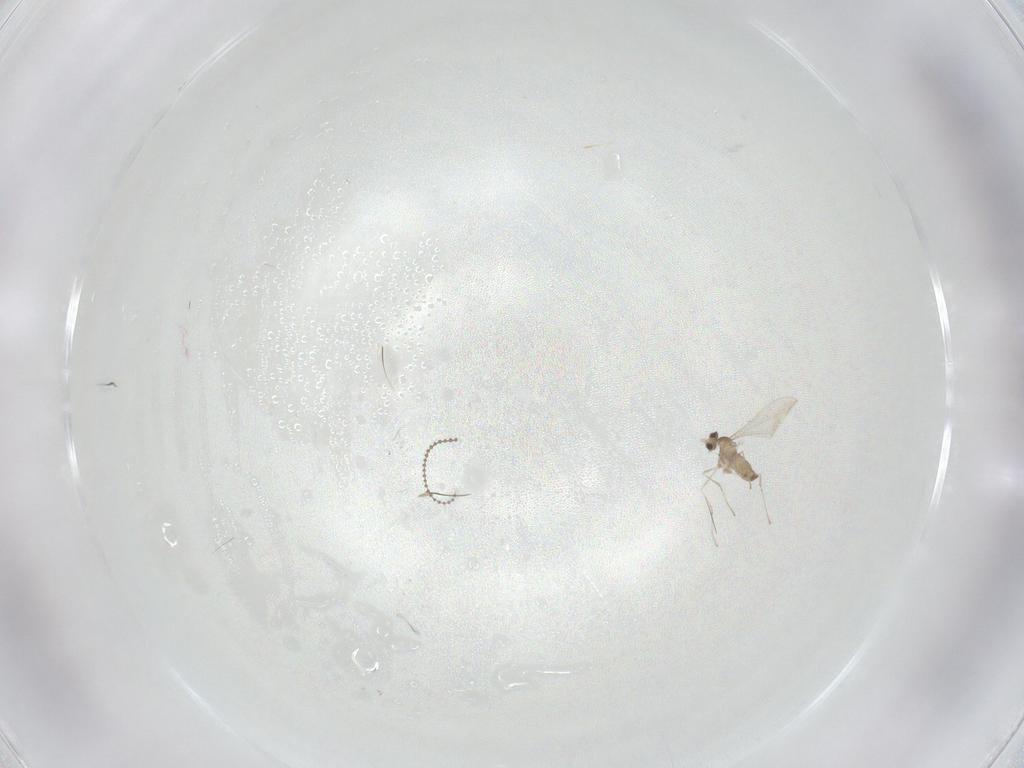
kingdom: Animalia
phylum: Arthropoda
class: Insecta
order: Diptera
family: Cecidomyiidae
